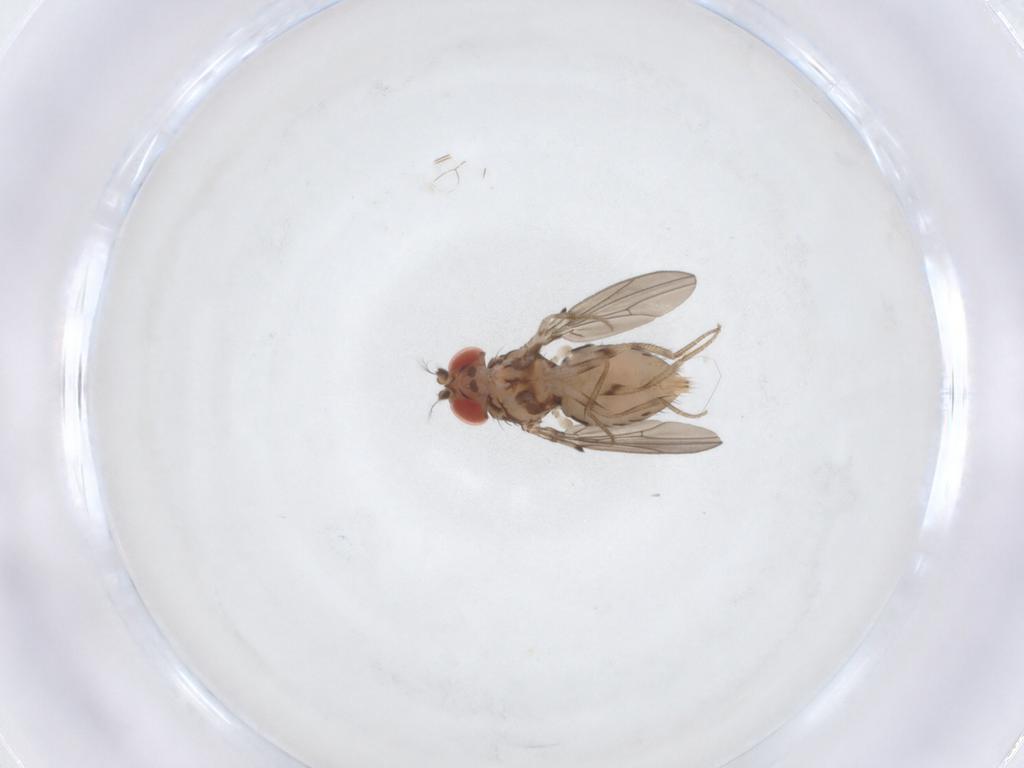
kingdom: Animalia
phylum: Arthropoda
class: Insecta
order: Diptera
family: Drosophilidae
